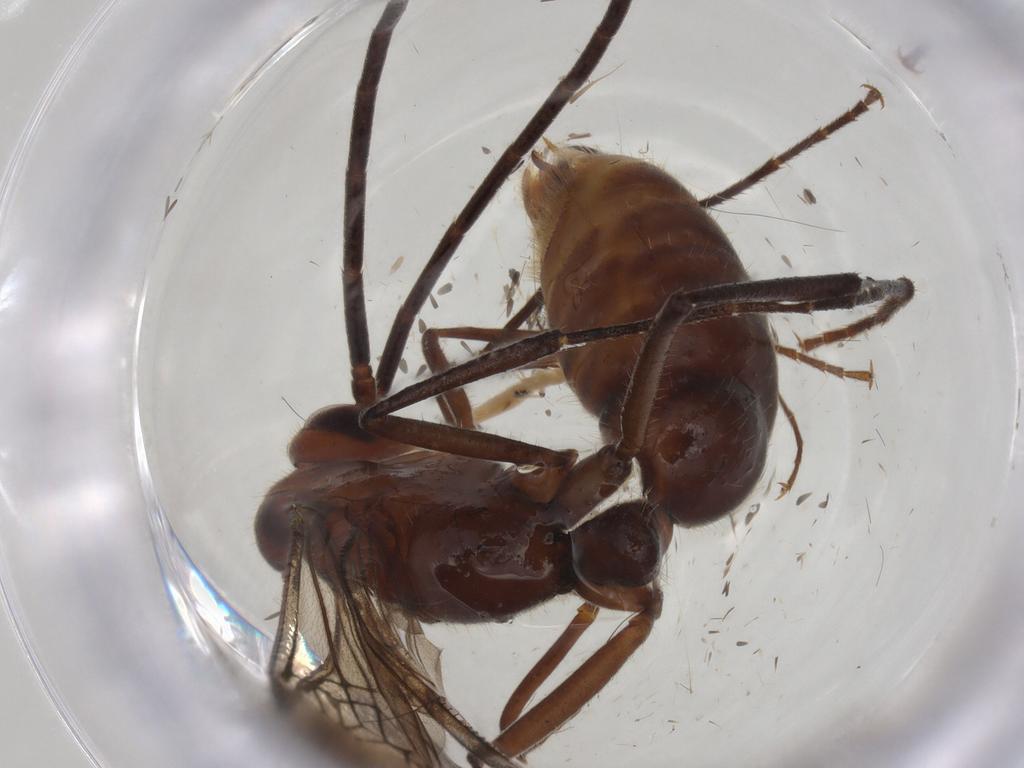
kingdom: Animalia
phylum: Arthropoda
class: Insecta
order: Hymenoptera
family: Formicidae
